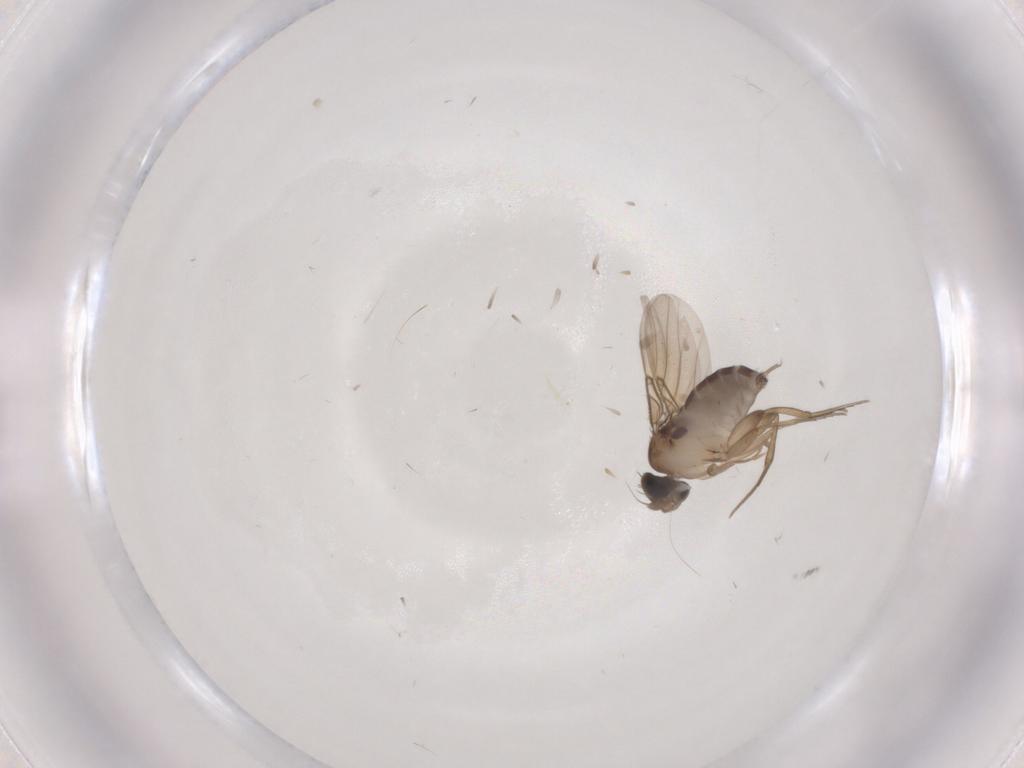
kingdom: Animalia
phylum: Arthropoda
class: Insecta
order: Diptera
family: Phoridae
